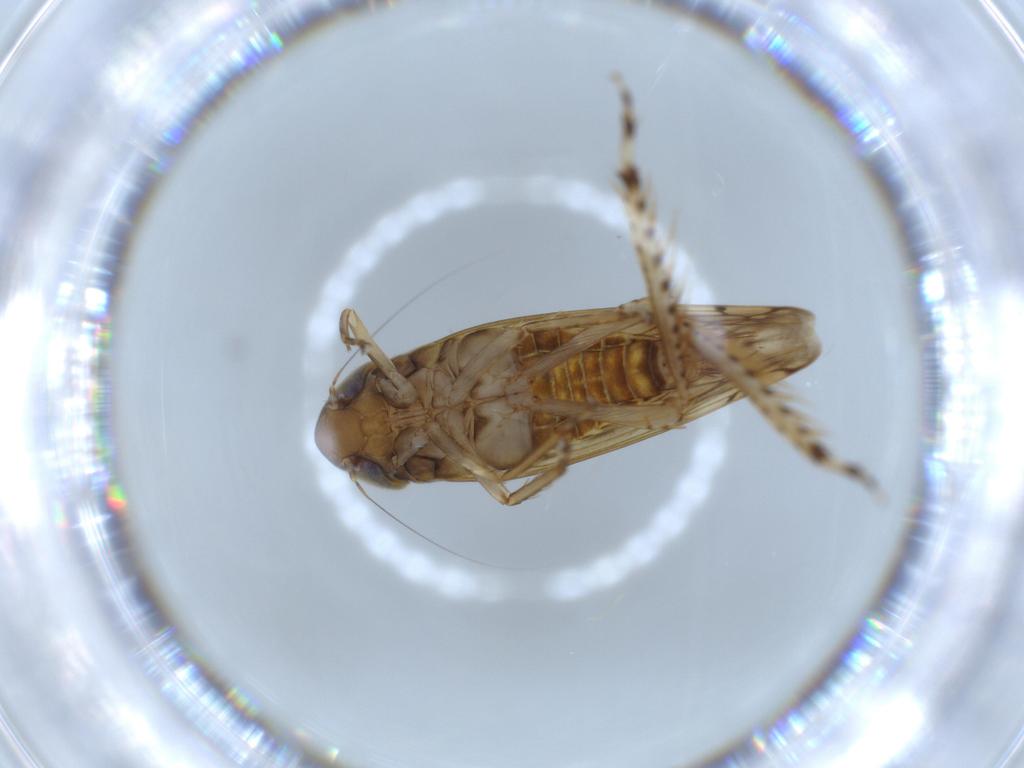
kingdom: Animalia
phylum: Arthropoda
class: Insecta
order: Hemiptera
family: Cicadellidae
